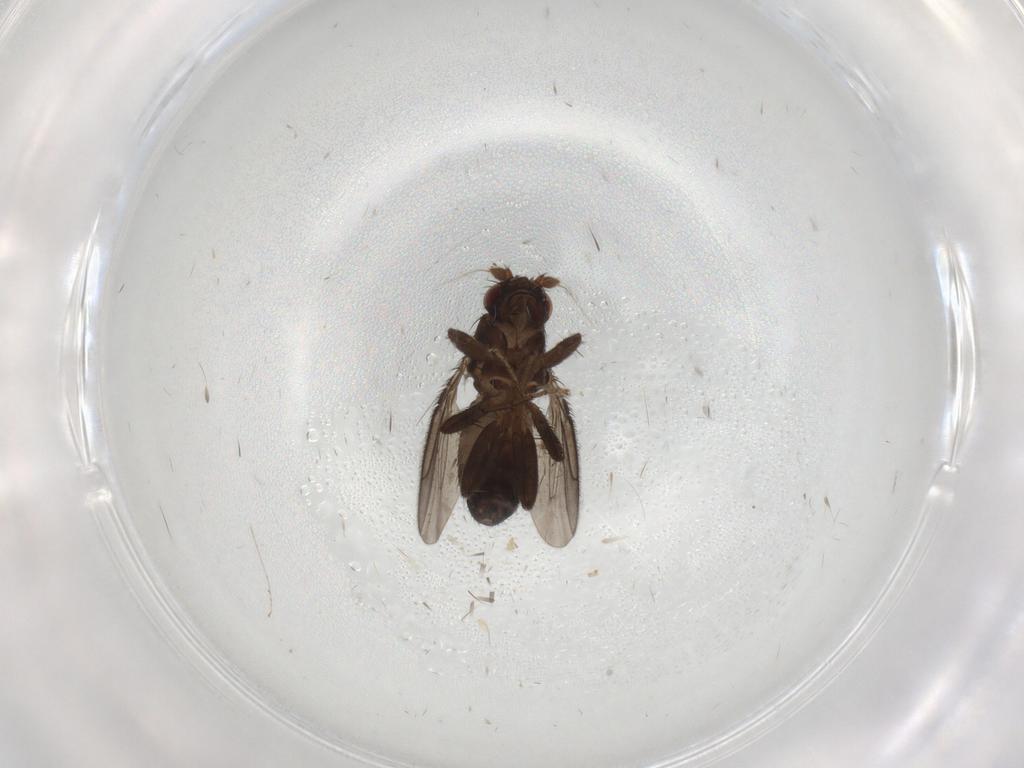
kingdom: Animalia
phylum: Arthropoda
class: Insecta
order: Diptera
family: Sphaeroceridae
